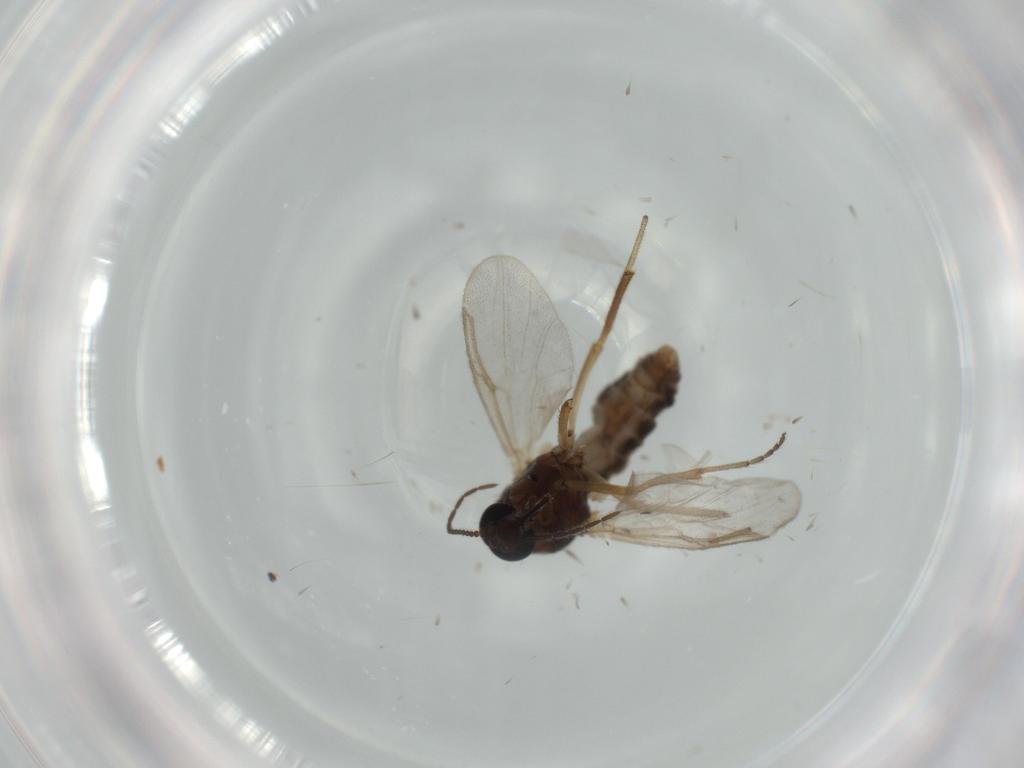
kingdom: Animalia
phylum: Arthropoda
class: Insecta
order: Diptera
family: Ceratopogonidae
